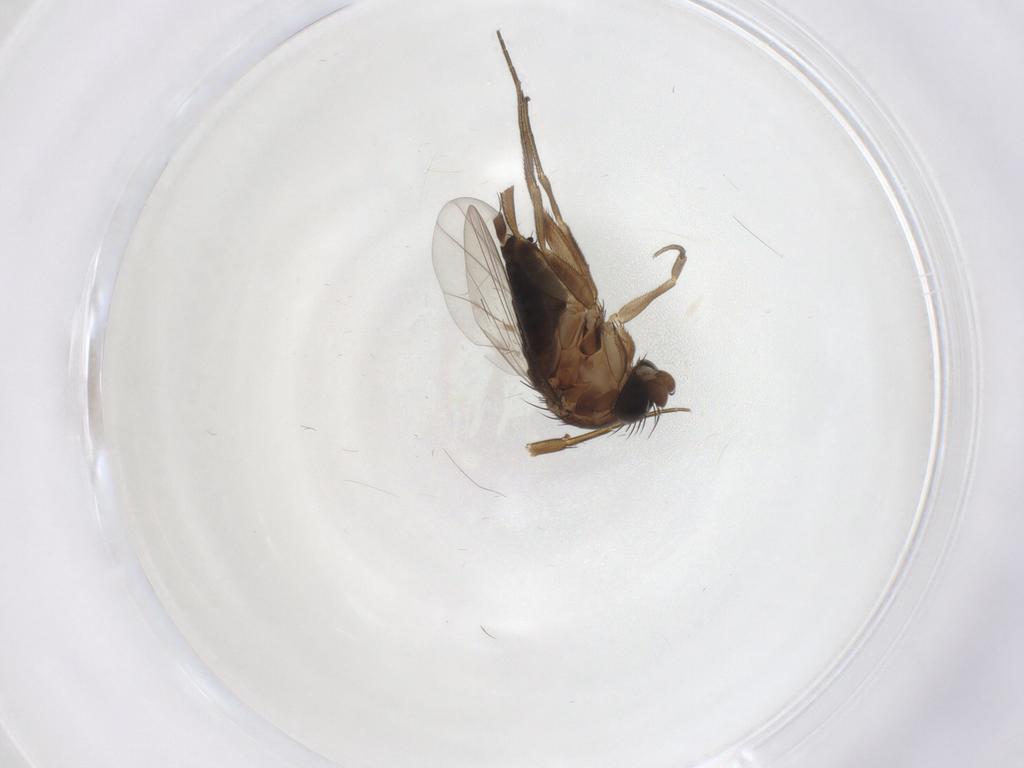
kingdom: Animalia
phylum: Arthropoda
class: Insecta
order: Diptera
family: Phoridae
